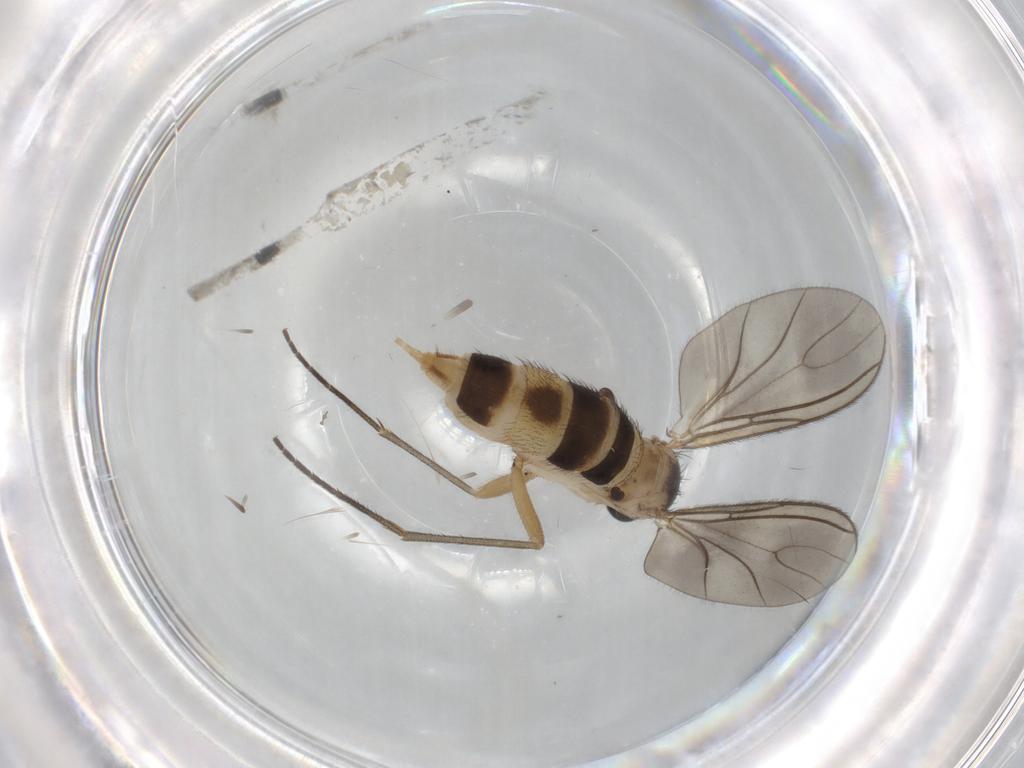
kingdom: Animalia
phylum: Arthropoda
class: Insecta
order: Diptera
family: Sciaridae
